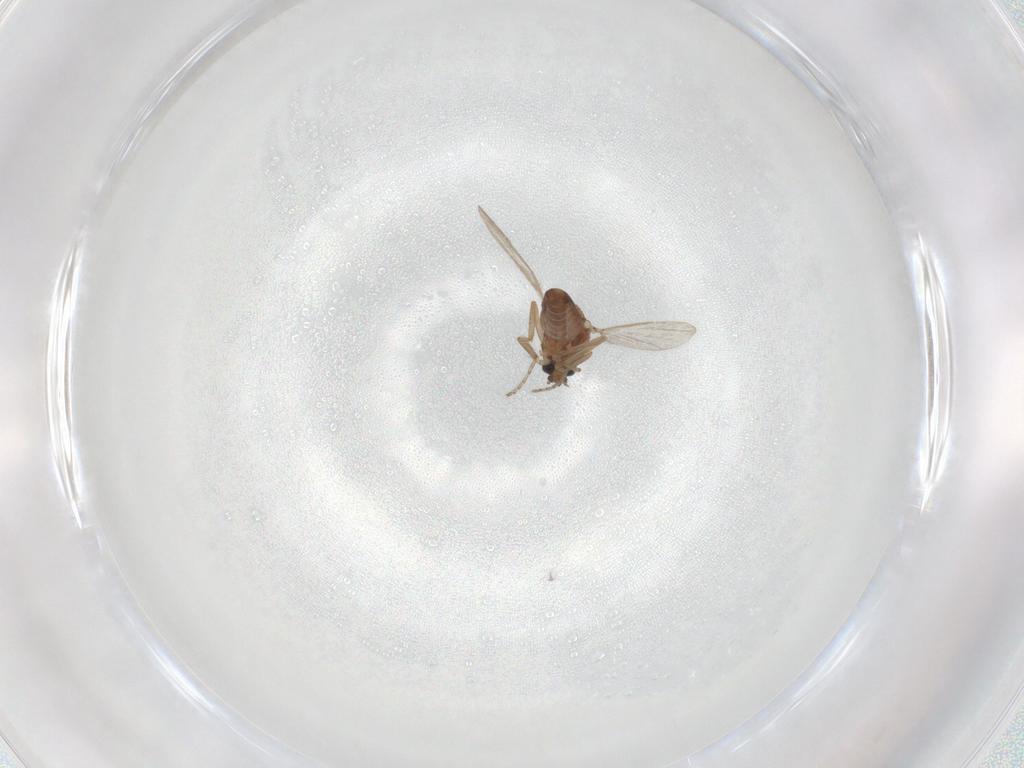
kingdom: Animalia
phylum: Arthropoda
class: Insecta
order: Diptera
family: Ceratopogonidae
